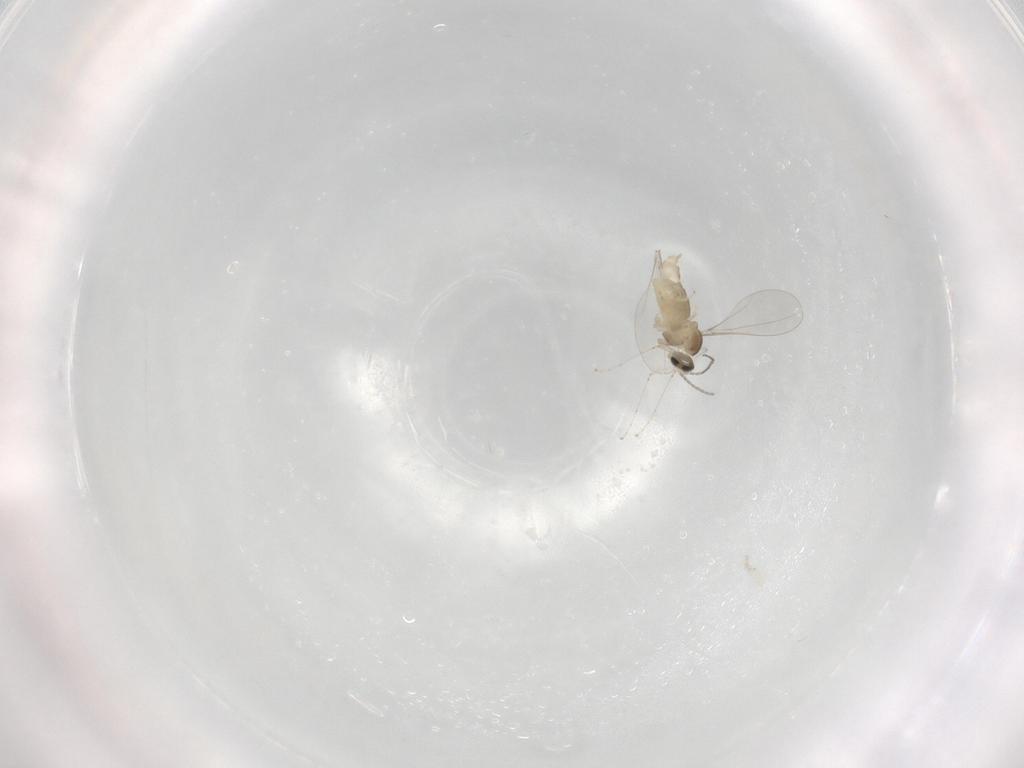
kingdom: Animalia
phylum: Arthropoda
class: Insecta
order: Diptera
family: Cecidomyiidae
